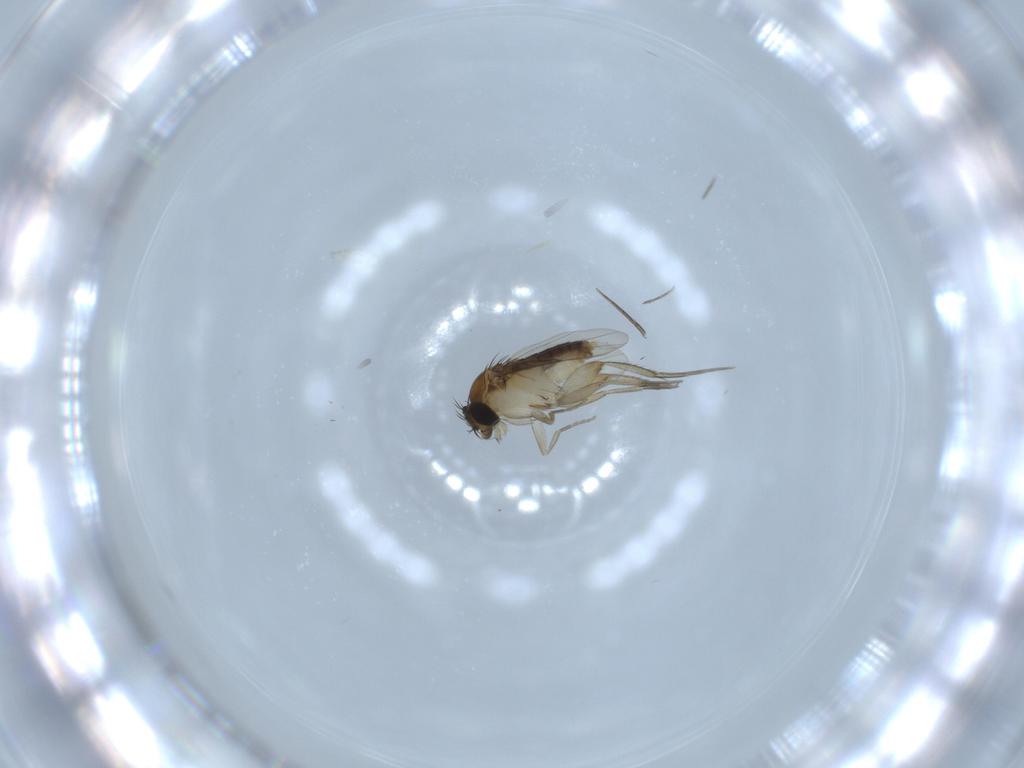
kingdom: Animalia
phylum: Arthropoda
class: Insecta
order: Diptera
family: Phoridae
